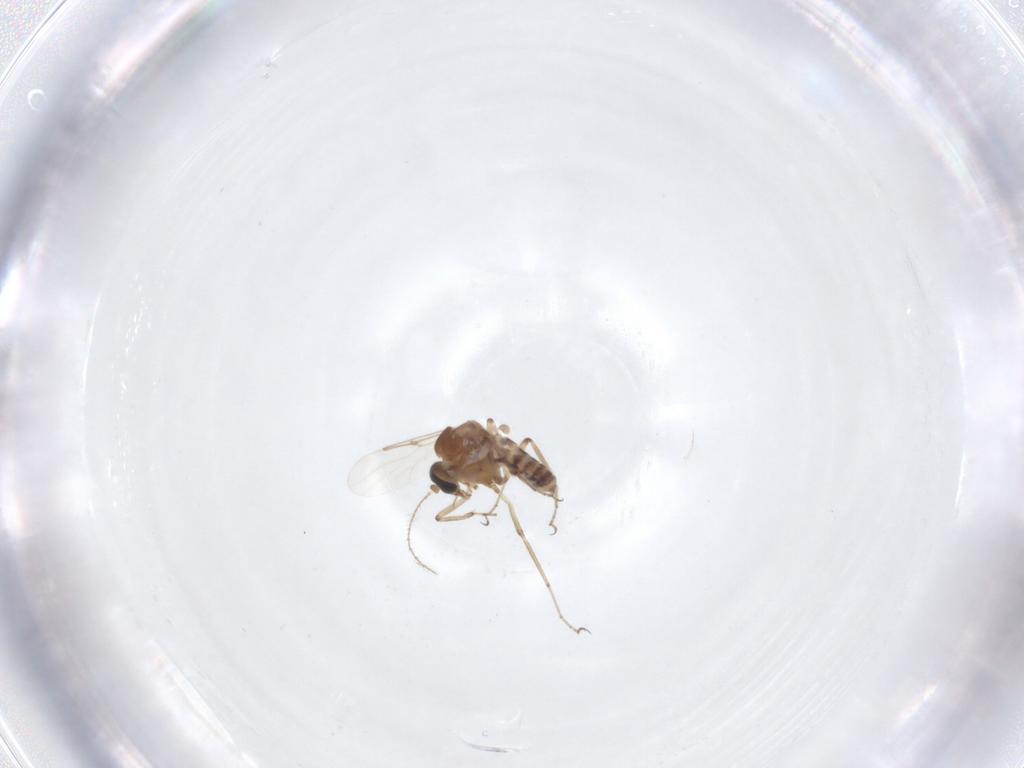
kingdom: Animalia
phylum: Arthropoda
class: Insecta
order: Diptera
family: Ceratopogonidae
